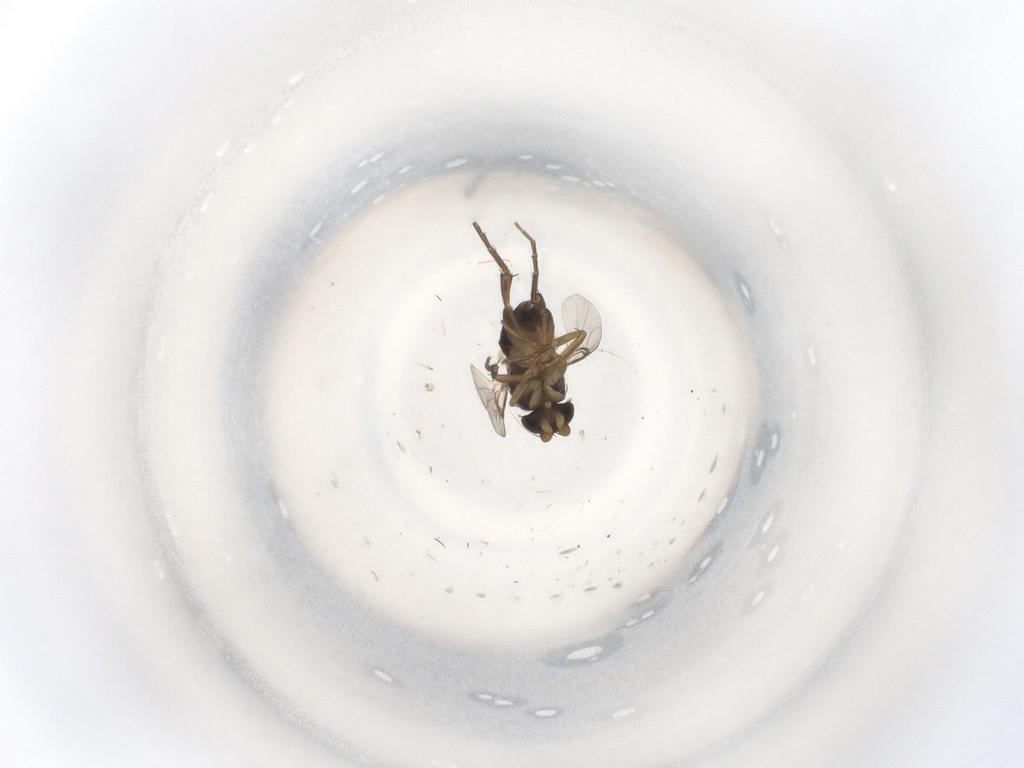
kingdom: Animalia
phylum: Arthropoda
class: Insecta
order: Diptera
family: Phoridae
